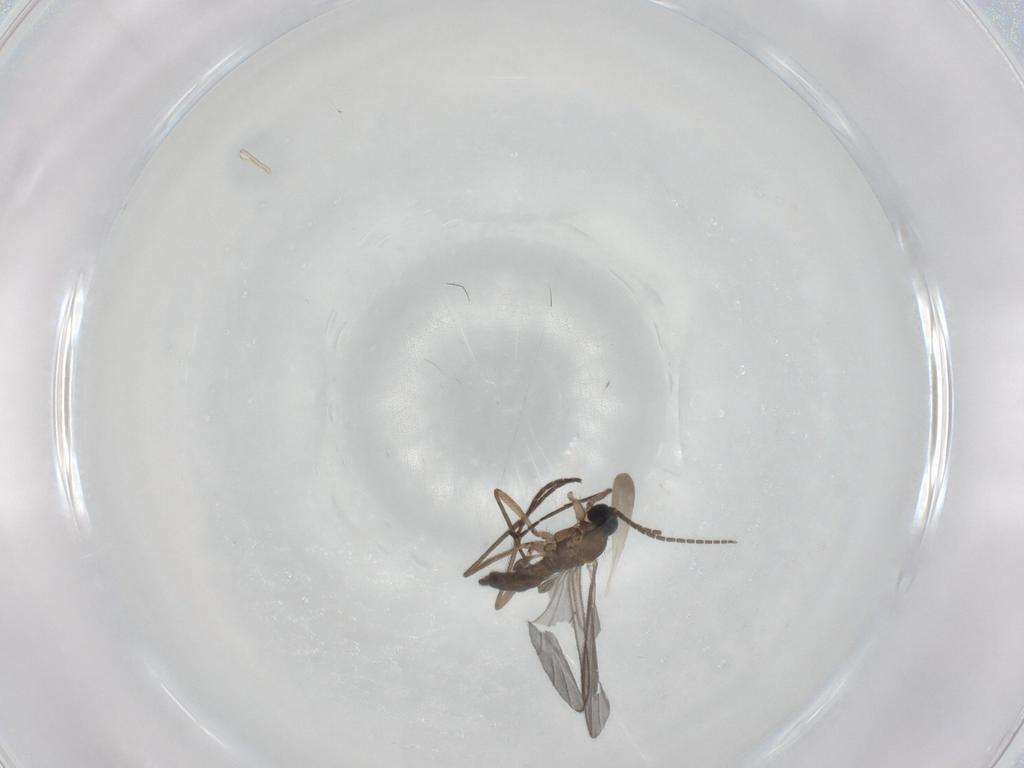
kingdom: Animalia
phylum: Arthropoda
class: Insecta
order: Diptera
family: Sciaridae
